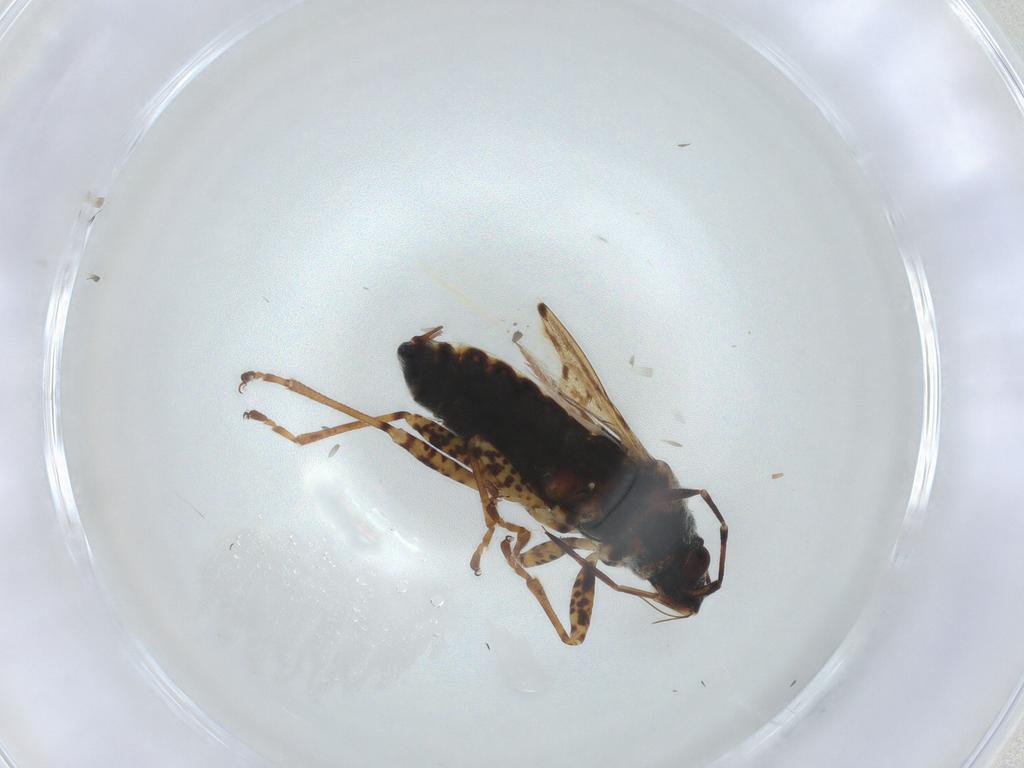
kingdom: Animalia
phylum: Arthropoda
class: Insecta
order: Hemiptera
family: Lygaeidae
